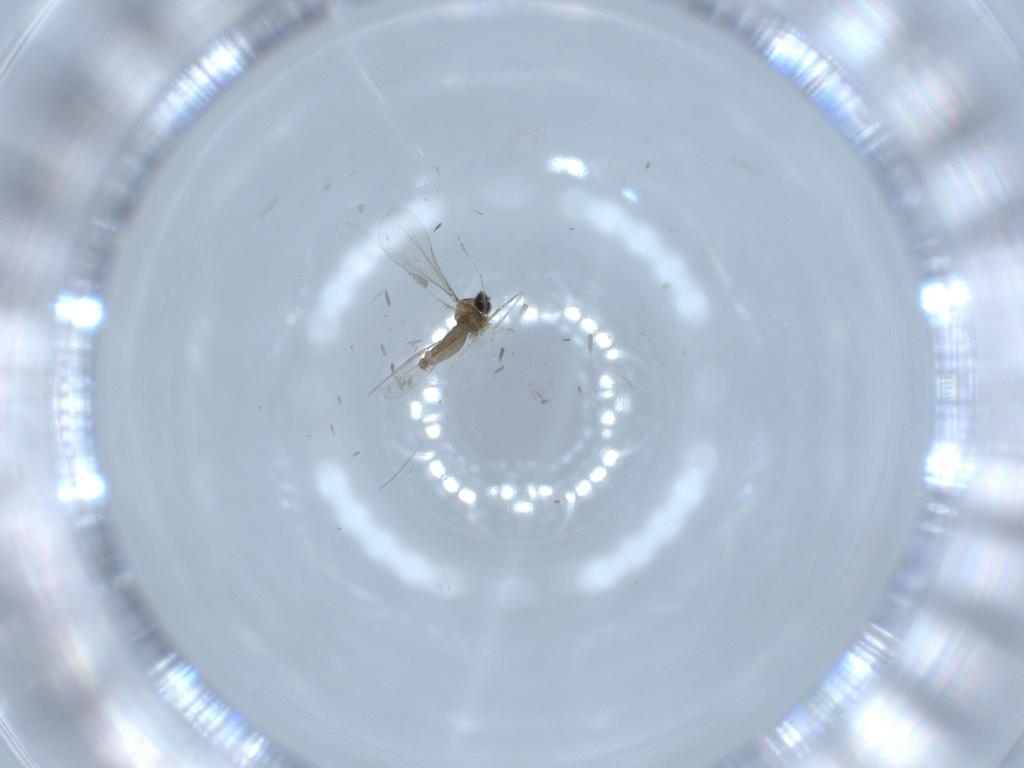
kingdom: Animalia
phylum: Arthropoda
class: Insecta
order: Diptera
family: Cecidomyiidae
